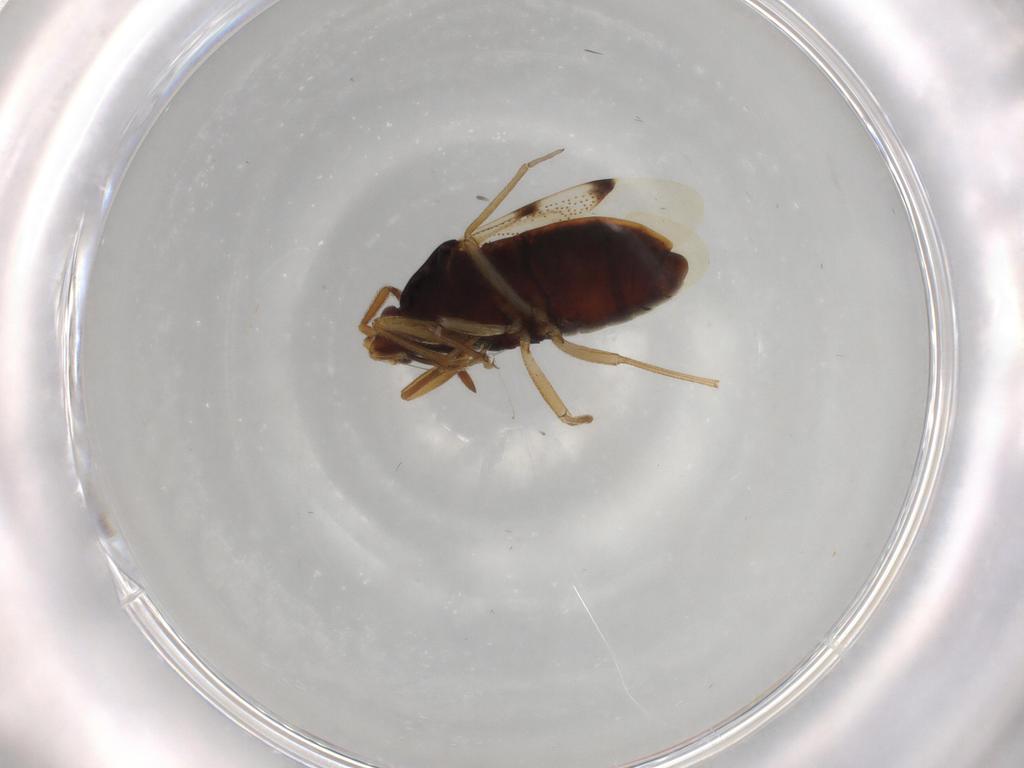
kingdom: Animalia
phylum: Arthropoda
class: Insecta
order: Hemiptera
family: Rhyparochromidae
